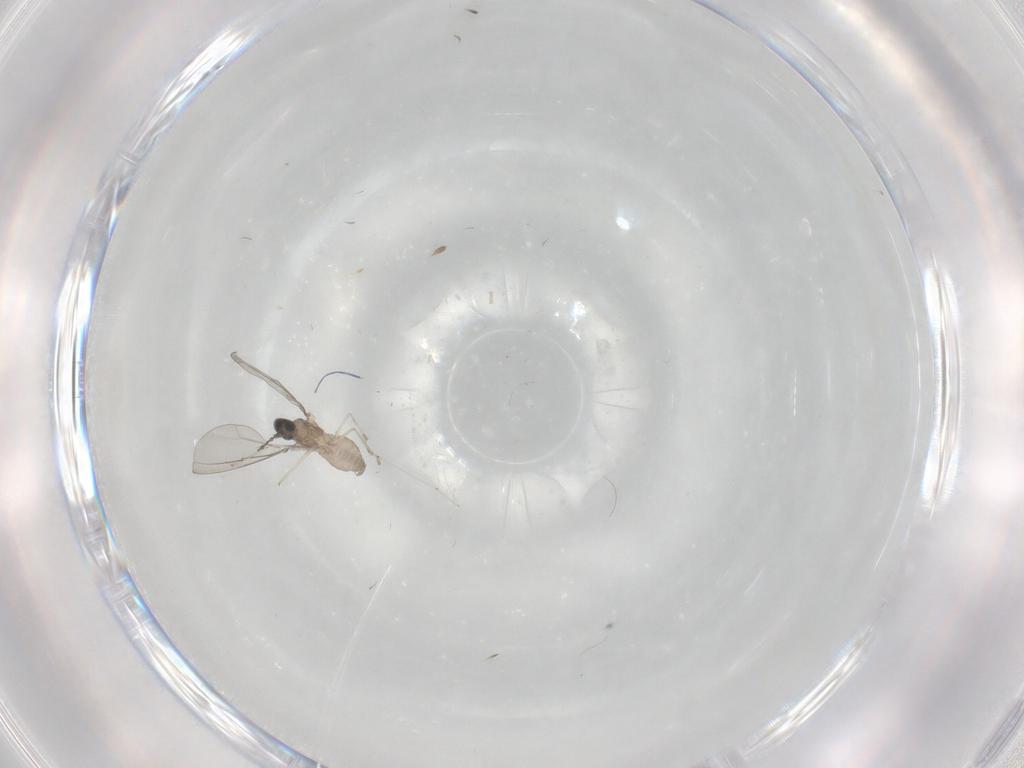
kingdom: Animalia
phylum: Arthropoda
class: Insecta
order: Diptera
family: Cecidomyiidae
